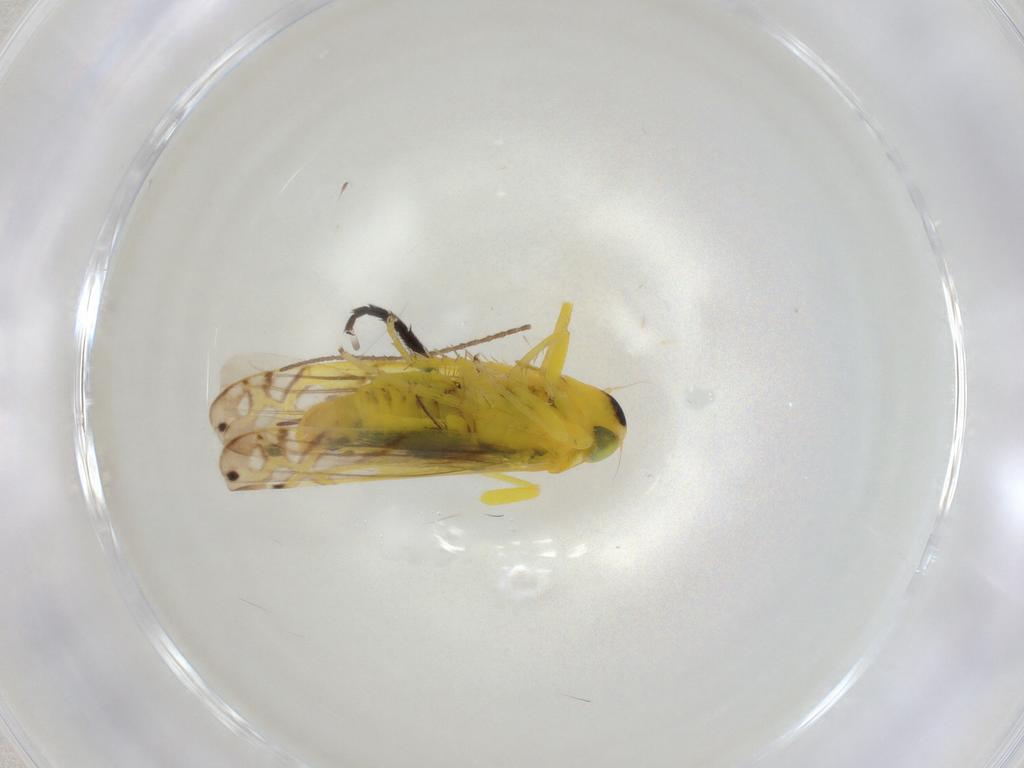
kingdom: Animalia
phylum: Arthropoda
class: Insecta
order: Hemiptera
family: Cicadellidae
